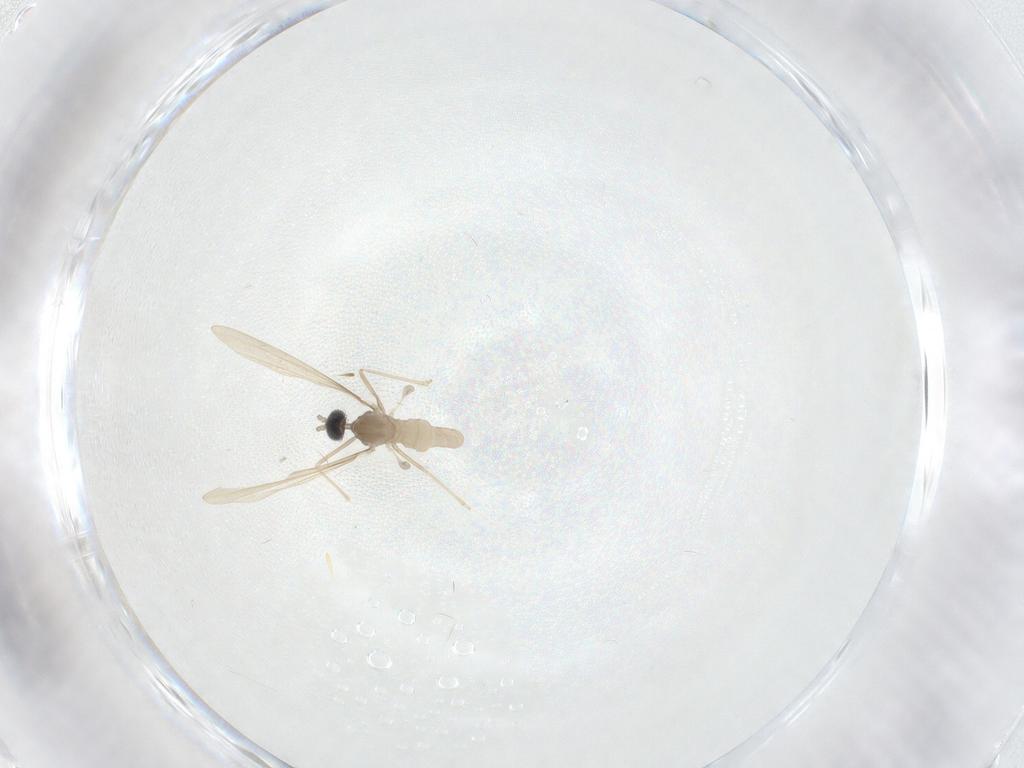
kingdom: Animalia
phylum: Arthropoda
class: Insecta
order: Diptera
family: Cecidomyiidae
